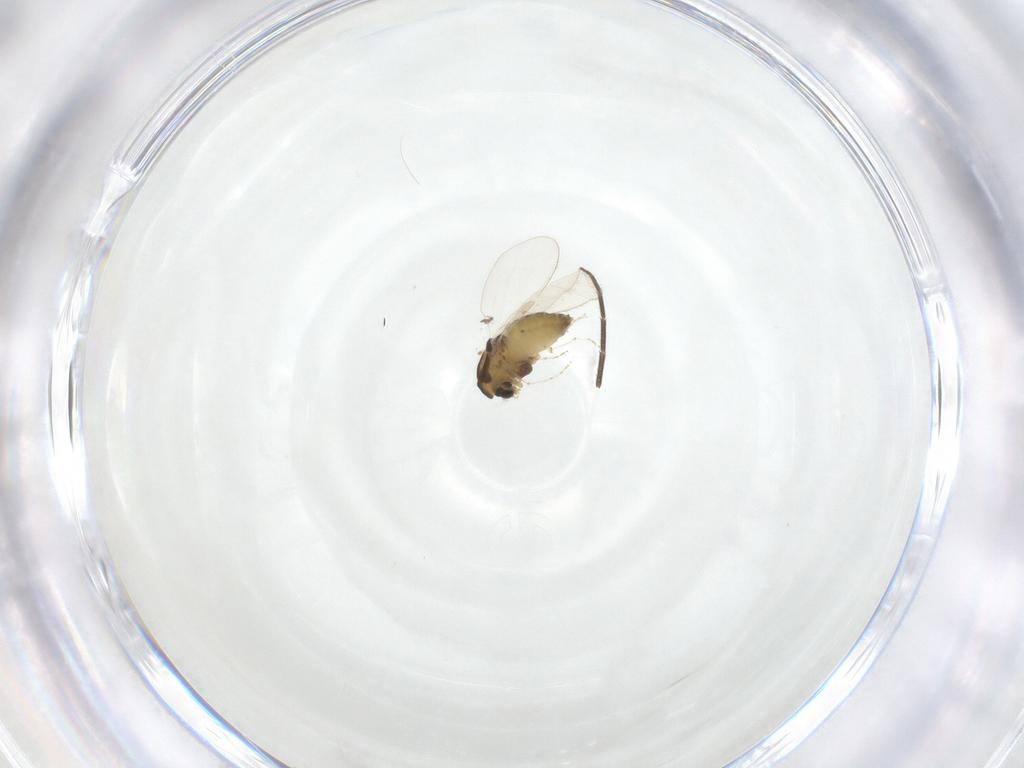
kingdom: Animalia
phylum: Arthropoda
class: Insecta
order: Diptera
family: Chironomidae
